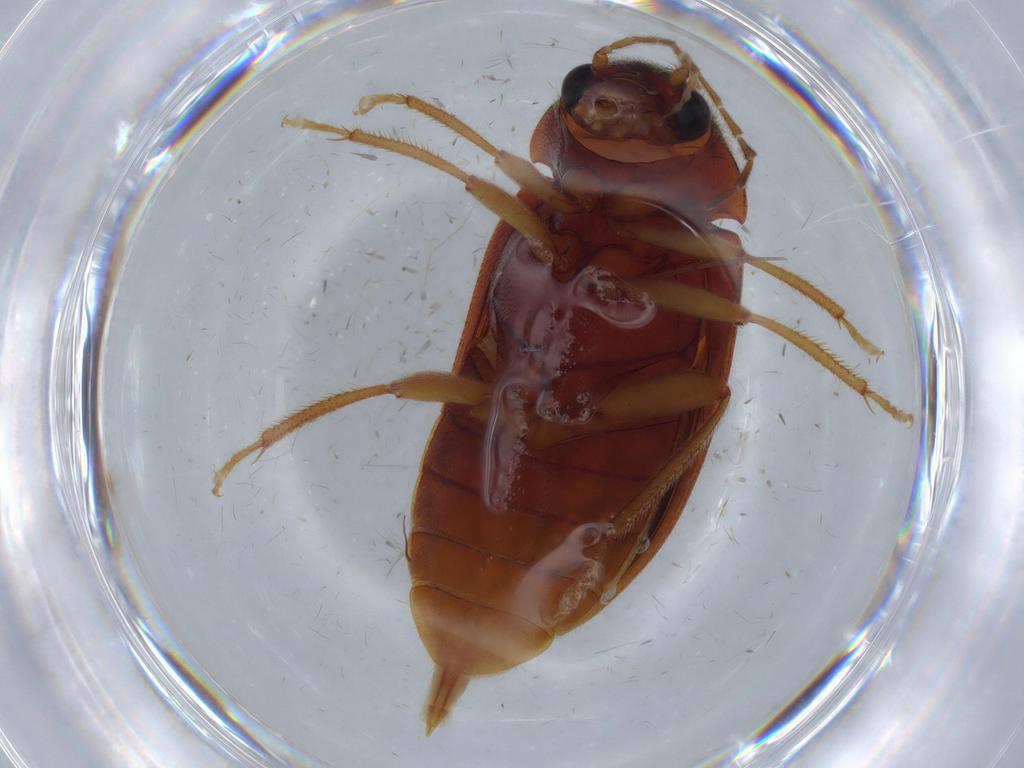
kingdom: Animalia
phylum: Arthropoda
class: Insecta
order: Coleoptera
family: Ptilodactylidae
